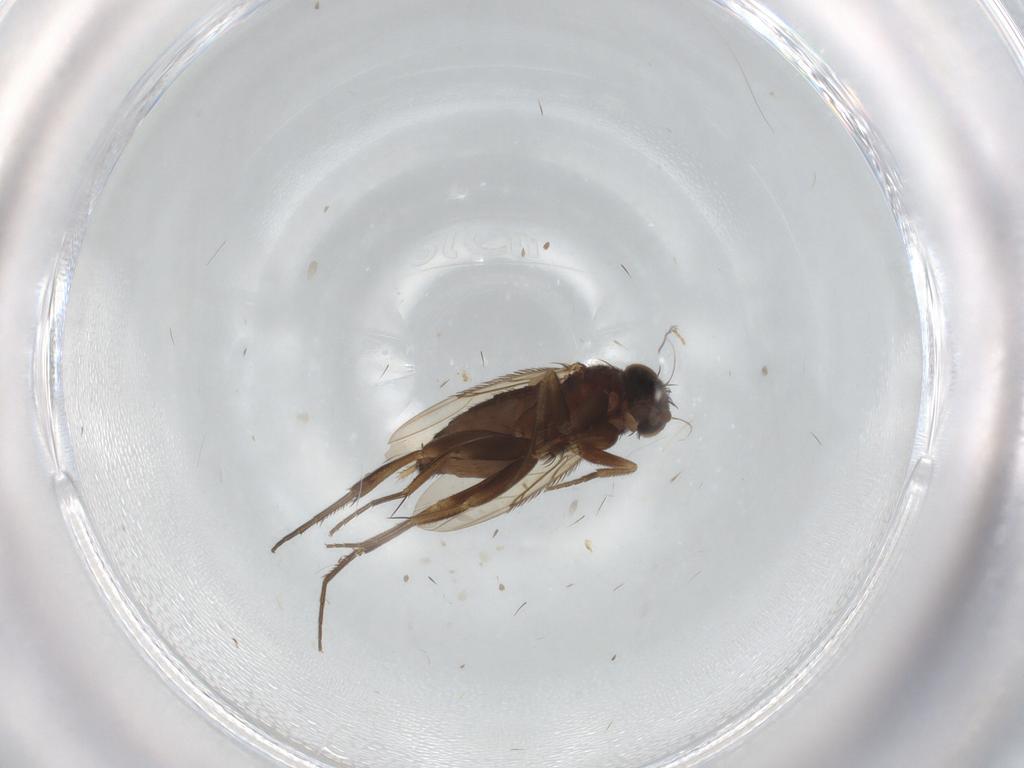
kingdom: Animalia
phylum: Arthropoda
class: Insecta
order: Diptera
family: Phoridae
